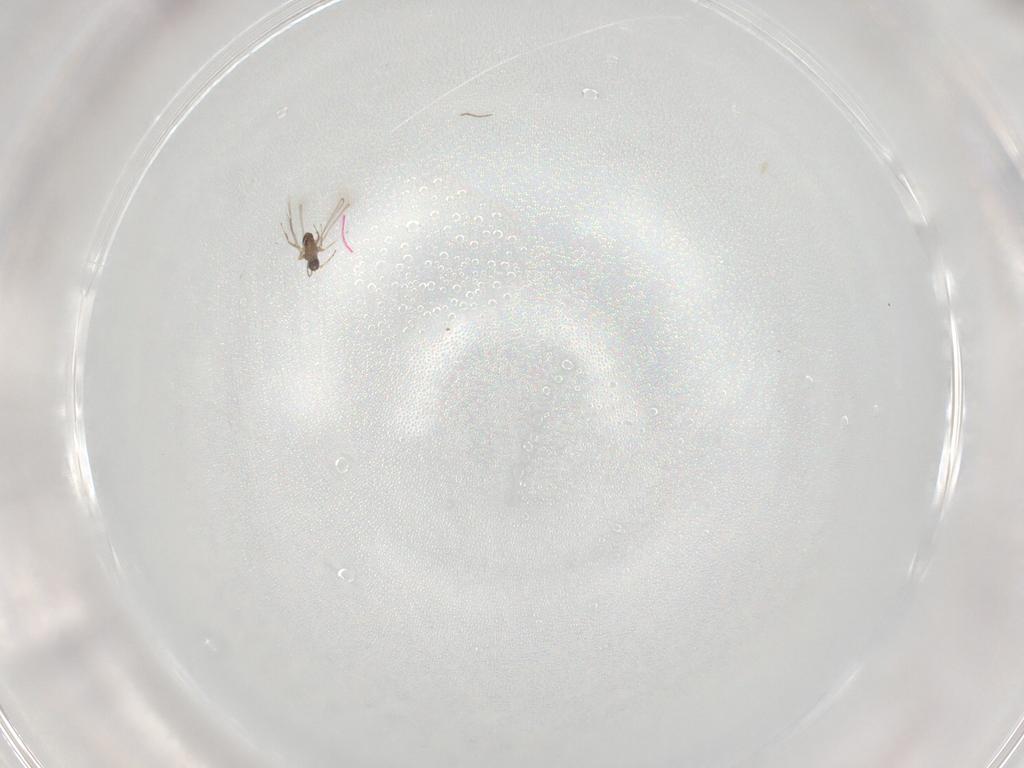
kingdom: Animalia
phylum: Arthropoda
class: Insecta
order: Hymenoptera
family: Mymaridae
